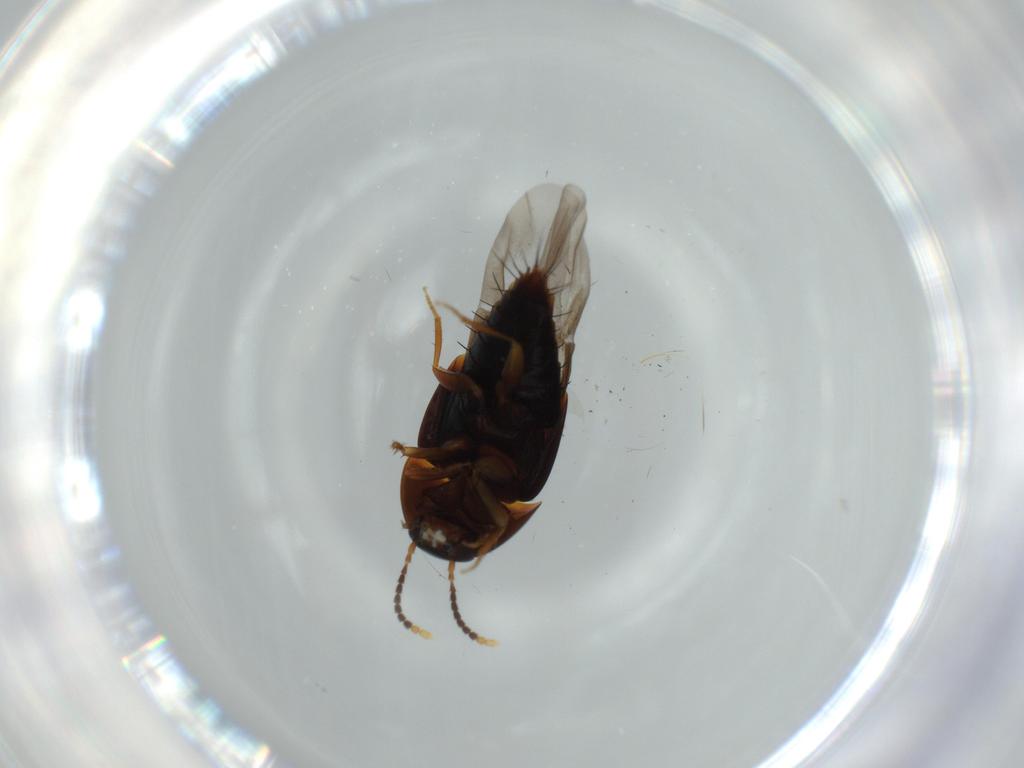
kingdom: Animalia
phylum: Arthropoda
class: Insecta
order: Coleoptera
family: Staphylinidae
